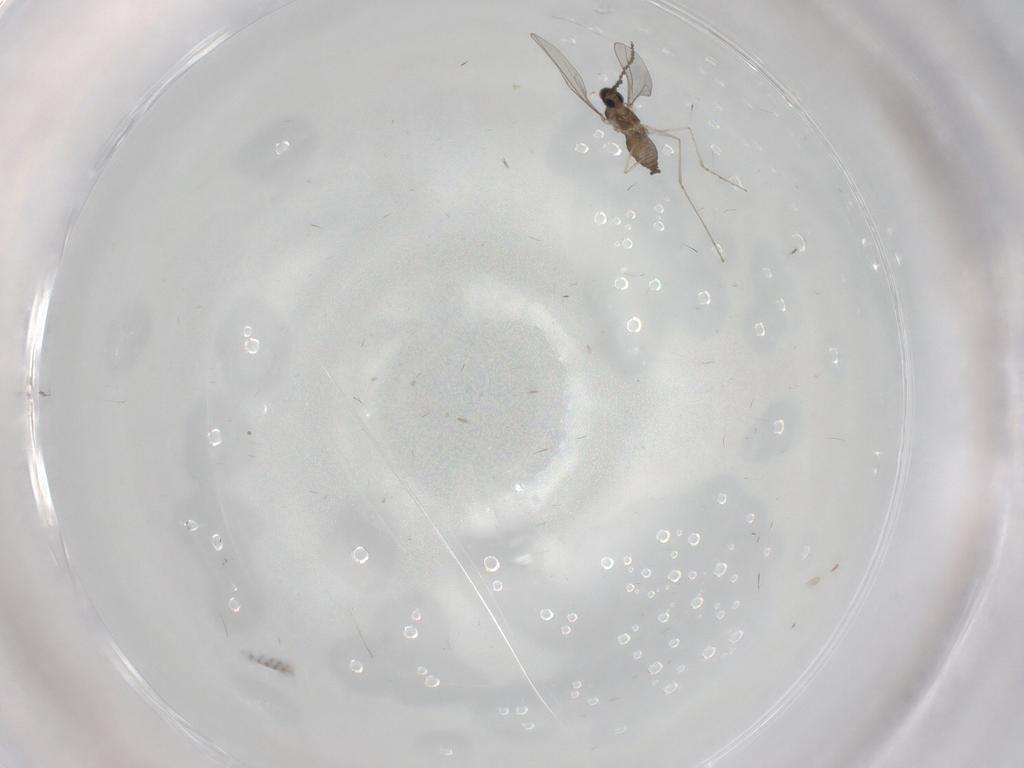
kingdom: Animalia
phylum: Arthropoda
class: Insecta
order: Diptera
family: Cecidomyiidae
